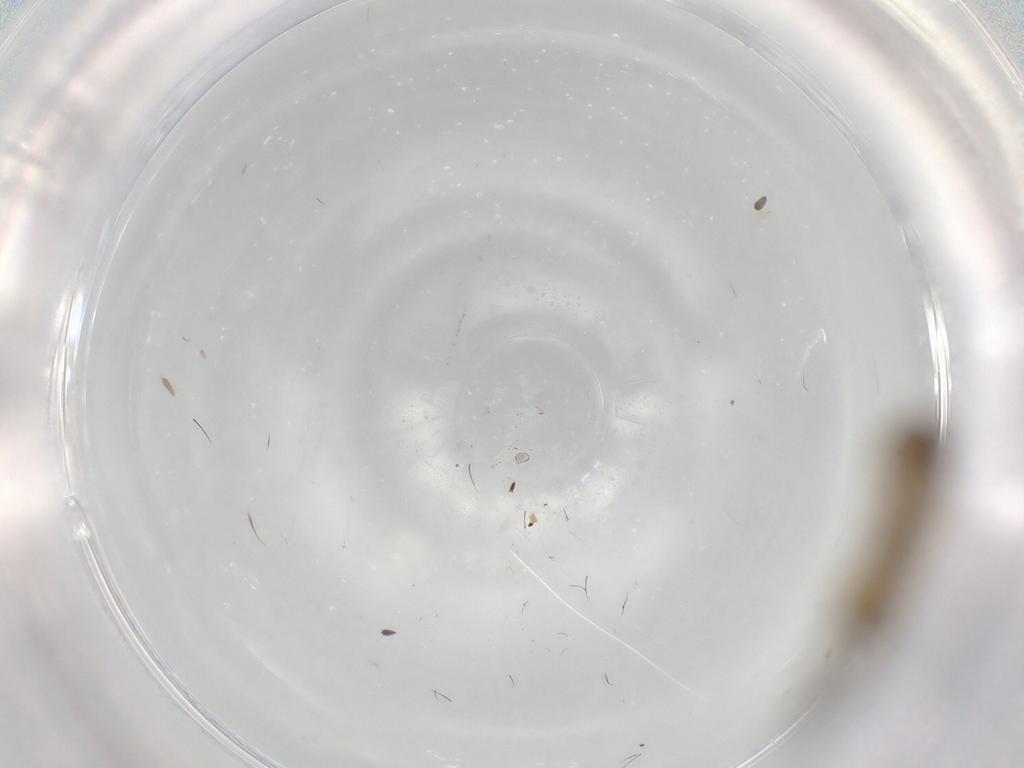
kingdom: Animalia
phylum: Arthropoda
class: Insecta
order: Diptera
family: Phoridae
